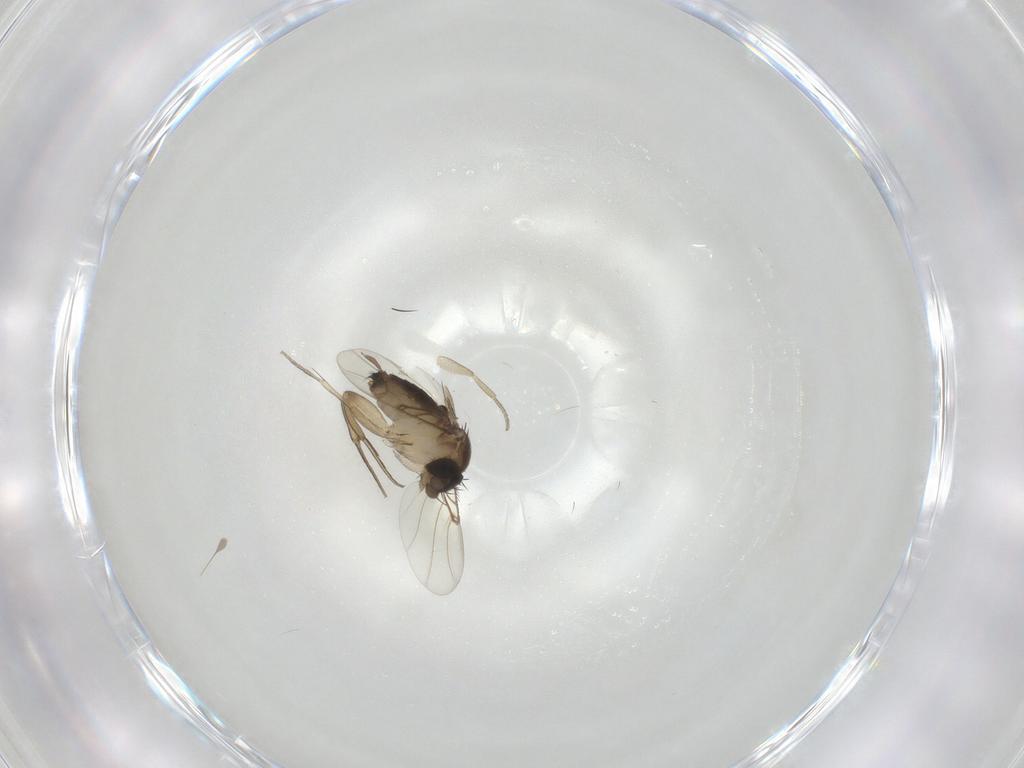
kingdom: Animalia
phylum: Arthropoda
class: Insecta
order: Diptera
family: Phoridae
